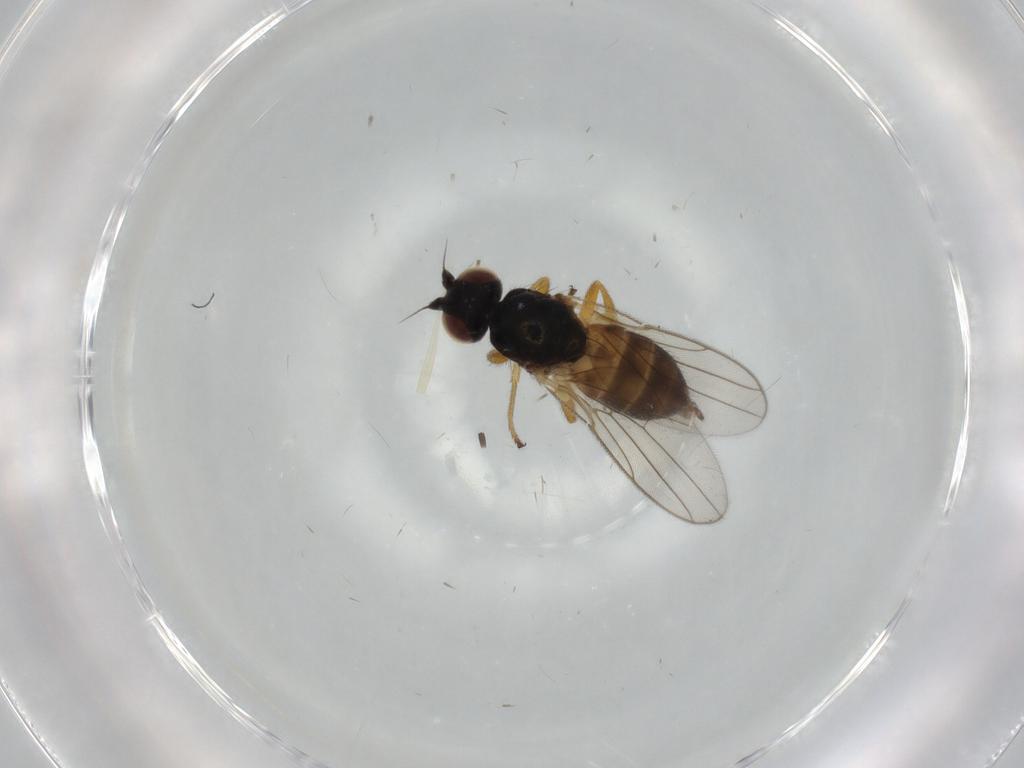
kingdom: Animalia
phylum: Arthropoda
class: Insecta
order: Diptera
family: Chloropidae
